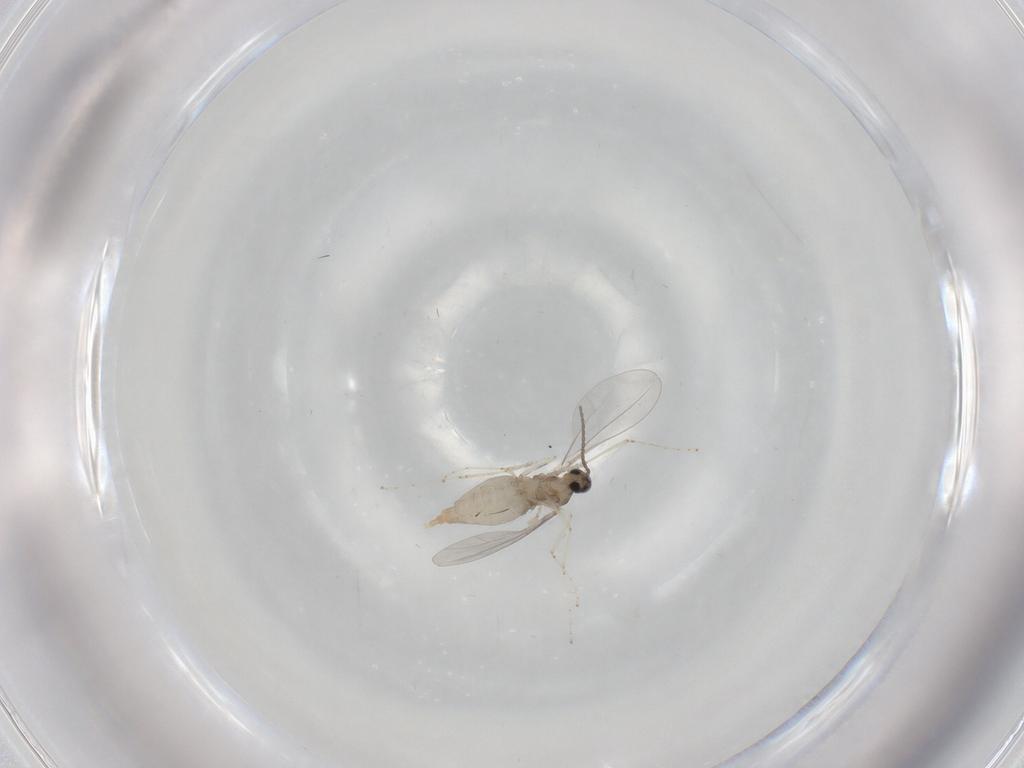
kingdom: Animalia
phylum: Arthropoda
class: Insecta
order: Diptera
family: Cecidomyiidae
